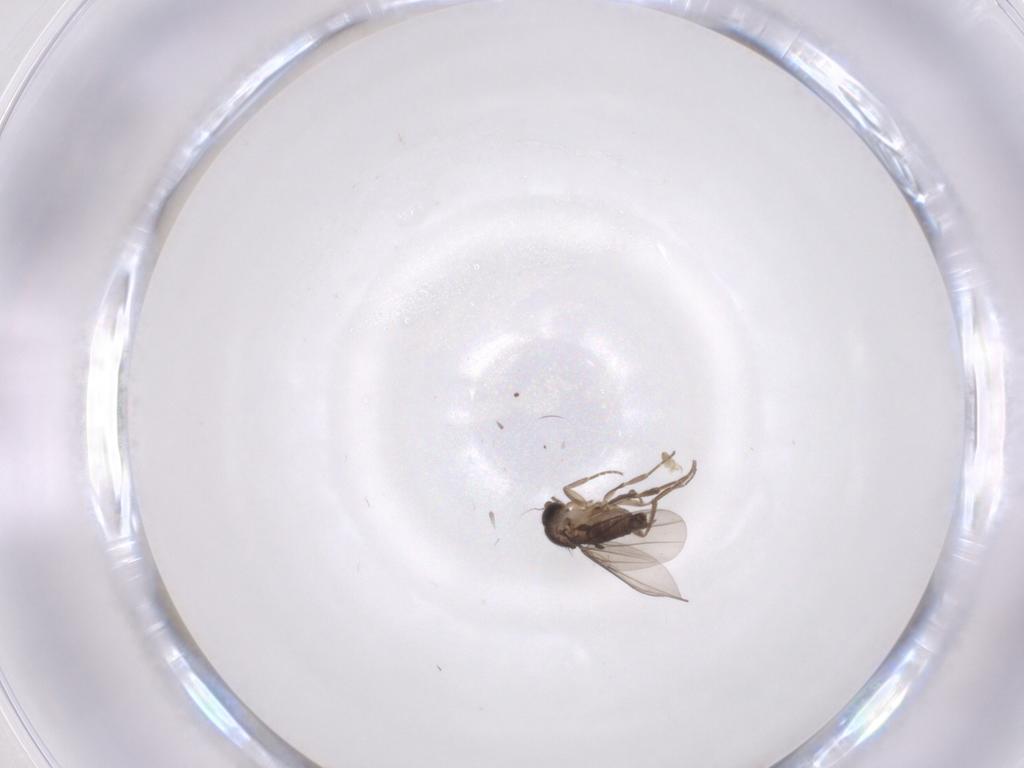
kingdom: Animalia
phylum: Arthropoda
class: Insecta
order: Diptera
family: Phoridae
